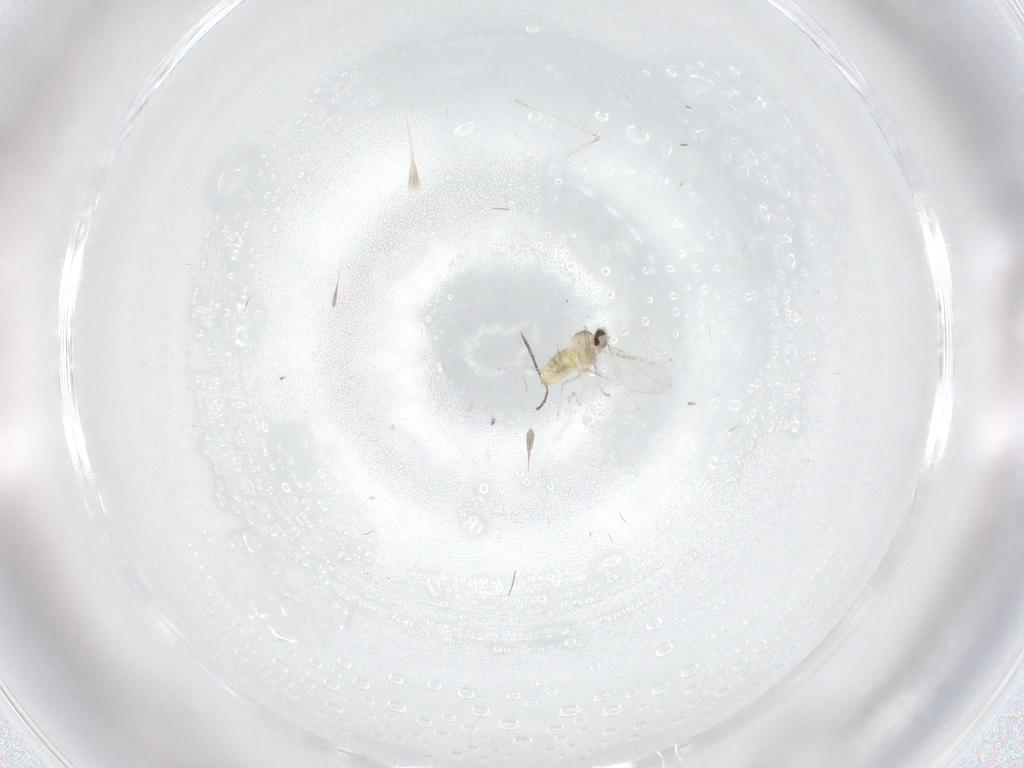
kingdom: Animalia
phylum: Arthropoda
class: Insecta
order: Diptera
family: Cecidomyiidae
